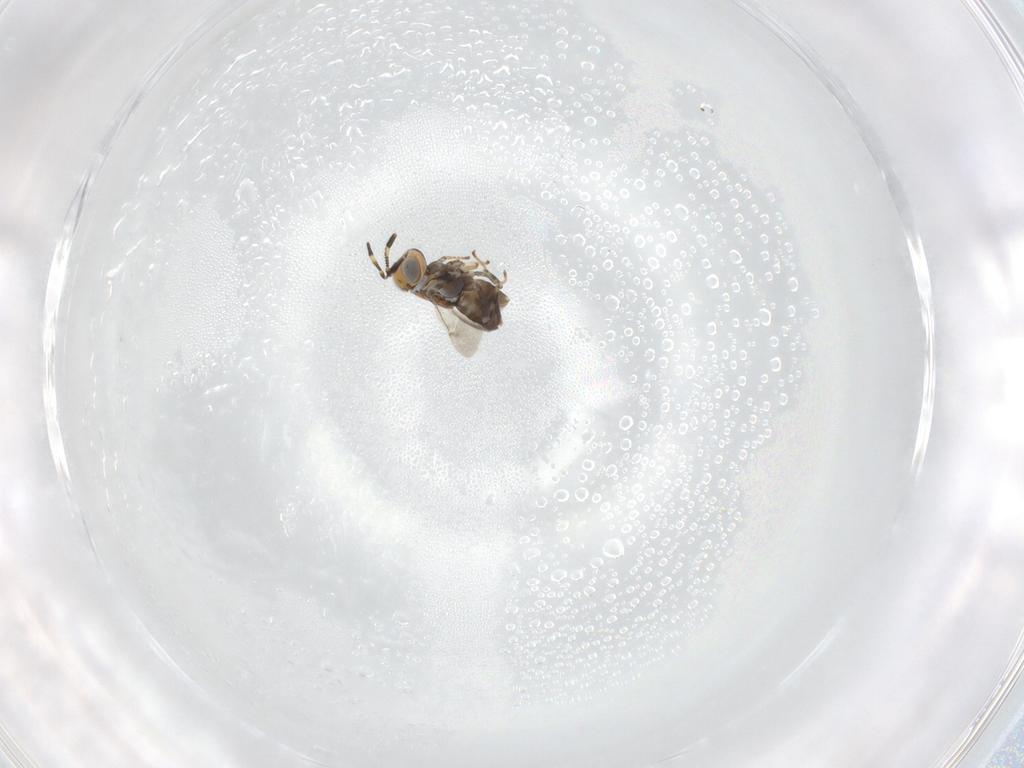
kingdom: Animalia
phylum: Arthropoda
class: Insecta
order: Hymenoptera
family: Encyrtidae
